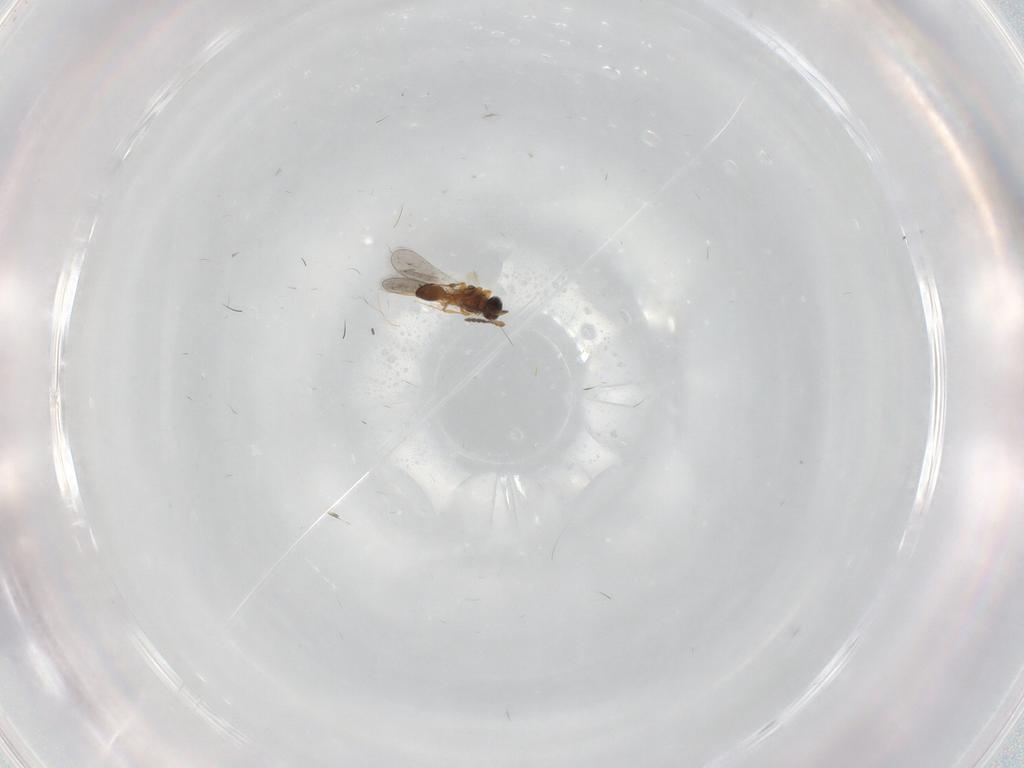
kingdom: Animalia
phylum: Arthropoda
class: Insecta
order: Hymenoptera
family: Platygastridae
